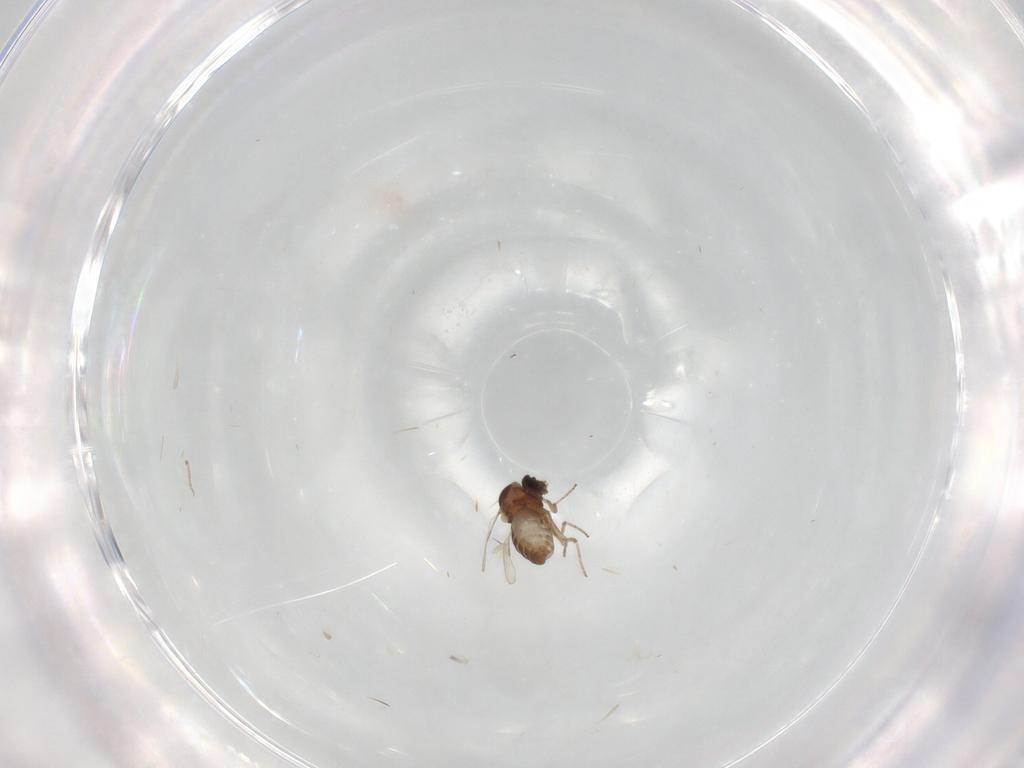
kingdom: Animalia
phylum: Arthropoda
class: Insecta
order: Diptera
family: Ceratopogonidae
